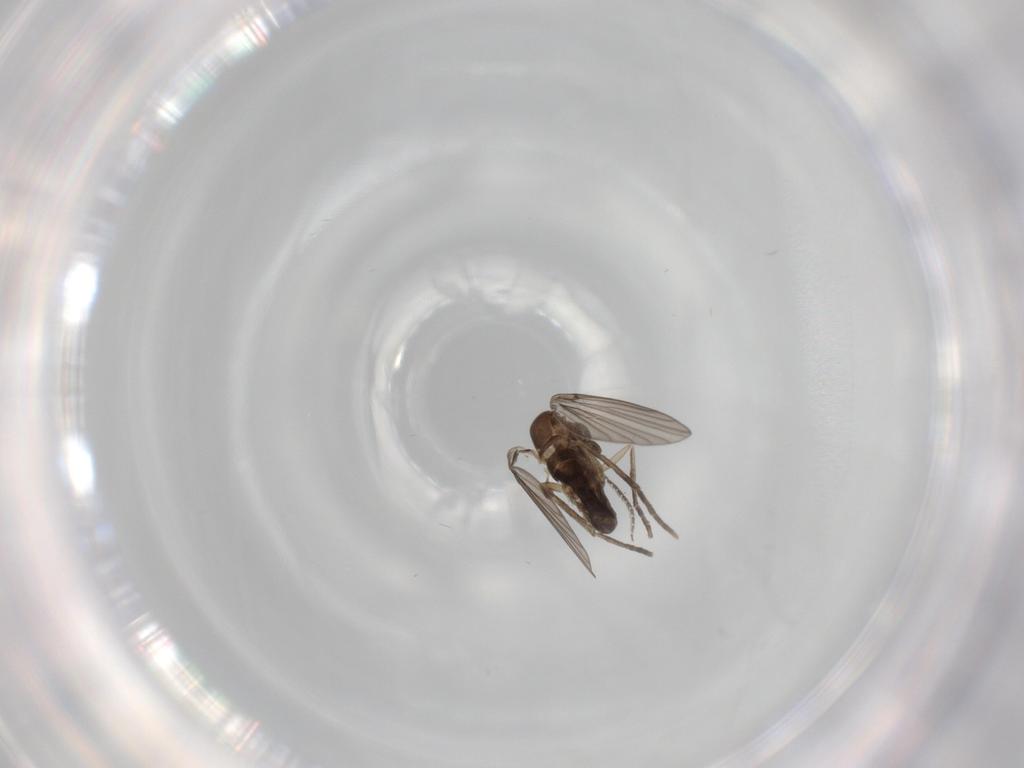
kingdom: Animalia
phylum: Arthropoda
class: Insecta
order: Diptera
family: Psychodidae
